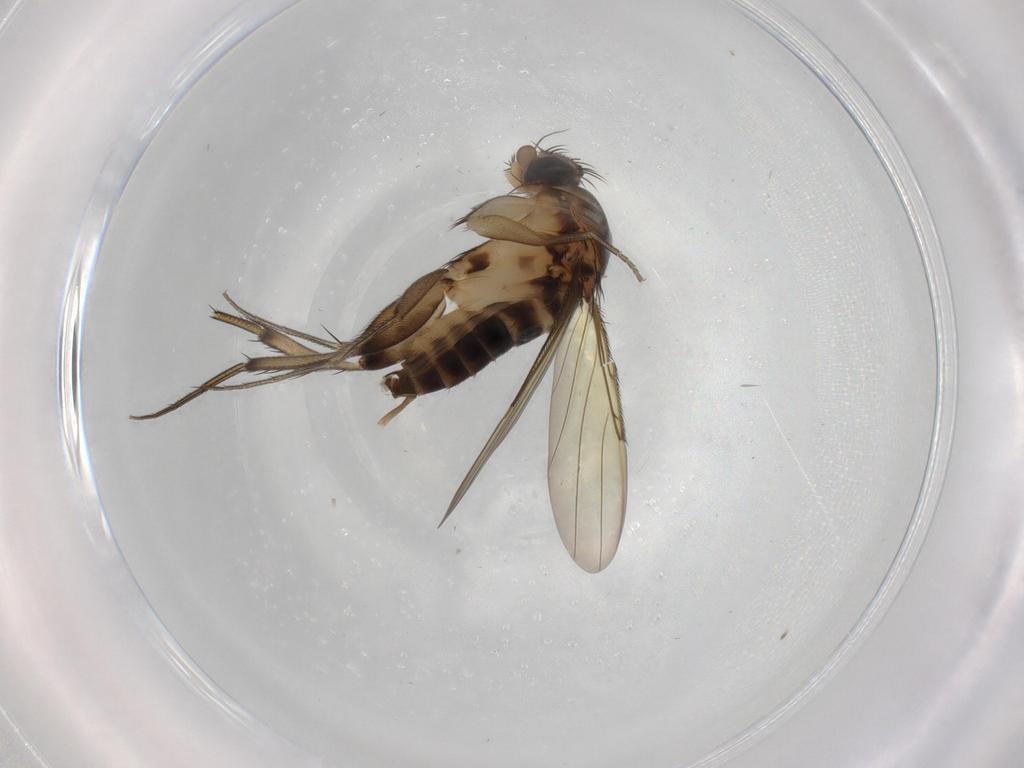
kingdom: Animalia
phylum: Arthropoda
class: Insecta
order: Diptera
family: Phoridae
